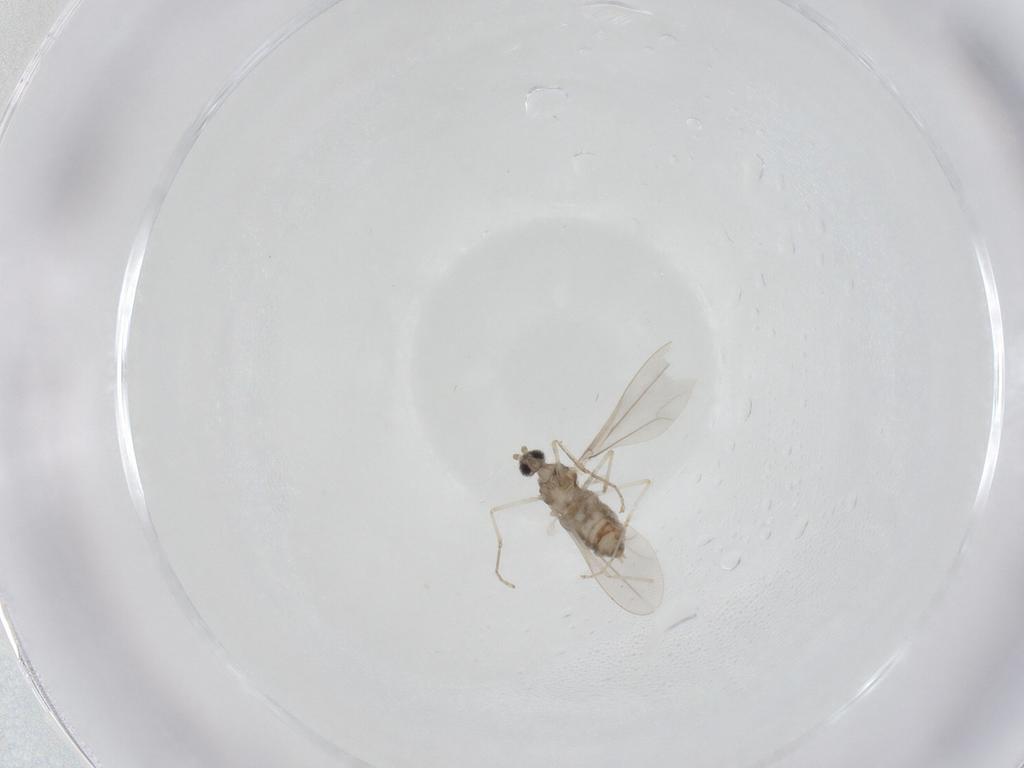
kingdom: Animalia
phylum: Arthropoda
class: Insecta
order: Diptera
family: Cecidomyiidae
